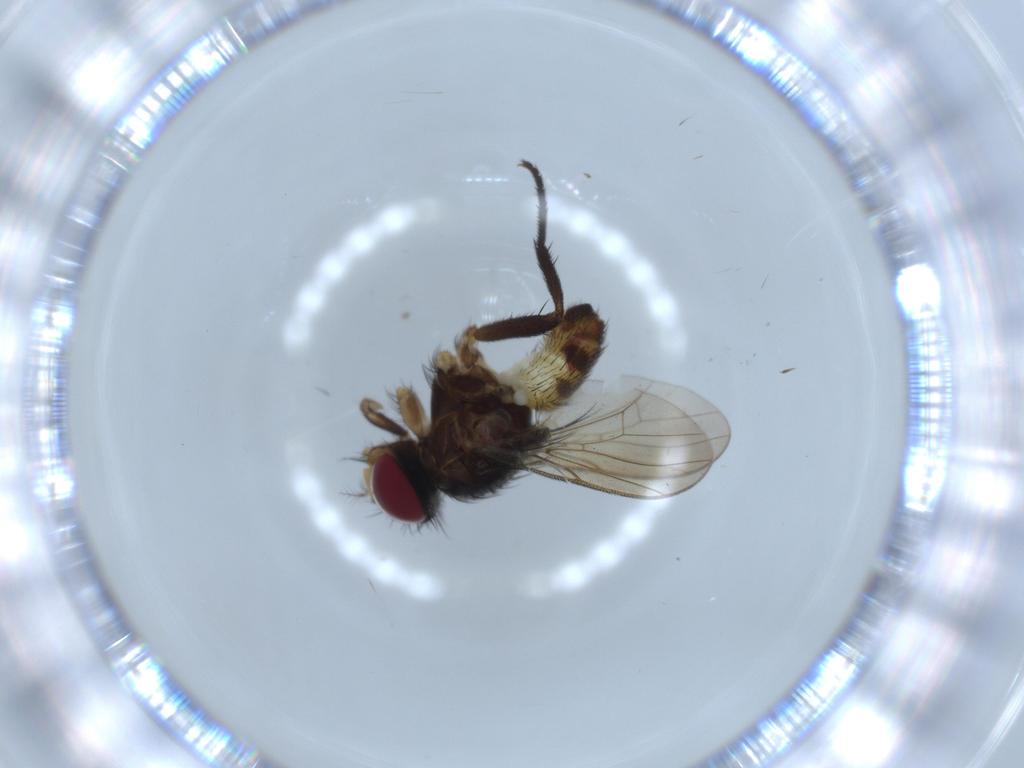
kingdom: Animalia
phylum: Arthropoda
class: Insecta
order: Diptera
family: Anthomyiidae
